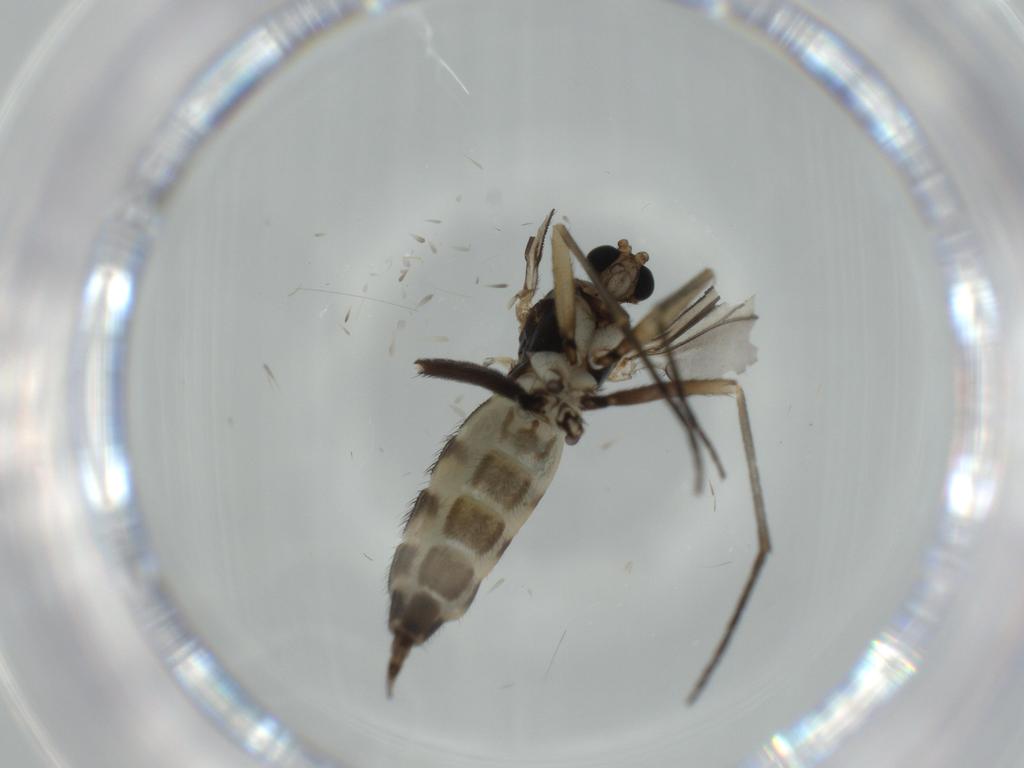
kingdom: Animalia
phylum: Arthropoda
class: Insecta
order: Diptera
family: Sciaridae
